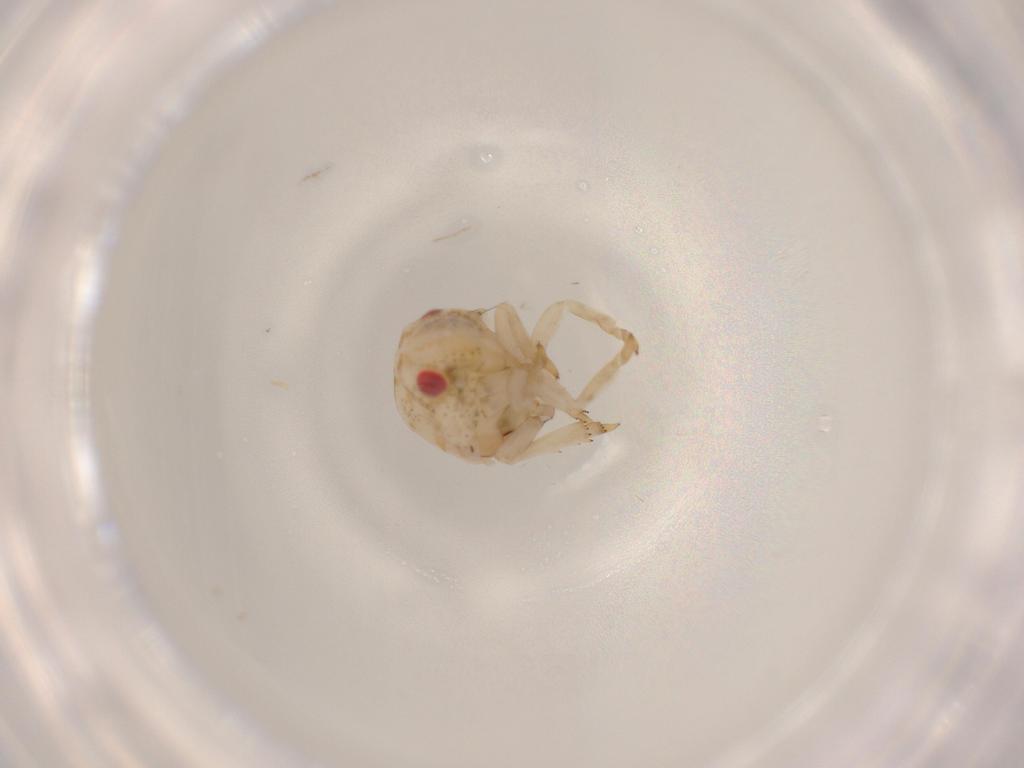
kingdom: Animalia
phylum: Arthropoda
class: Insecta
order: Hemiptera
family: Acanaloniidae
